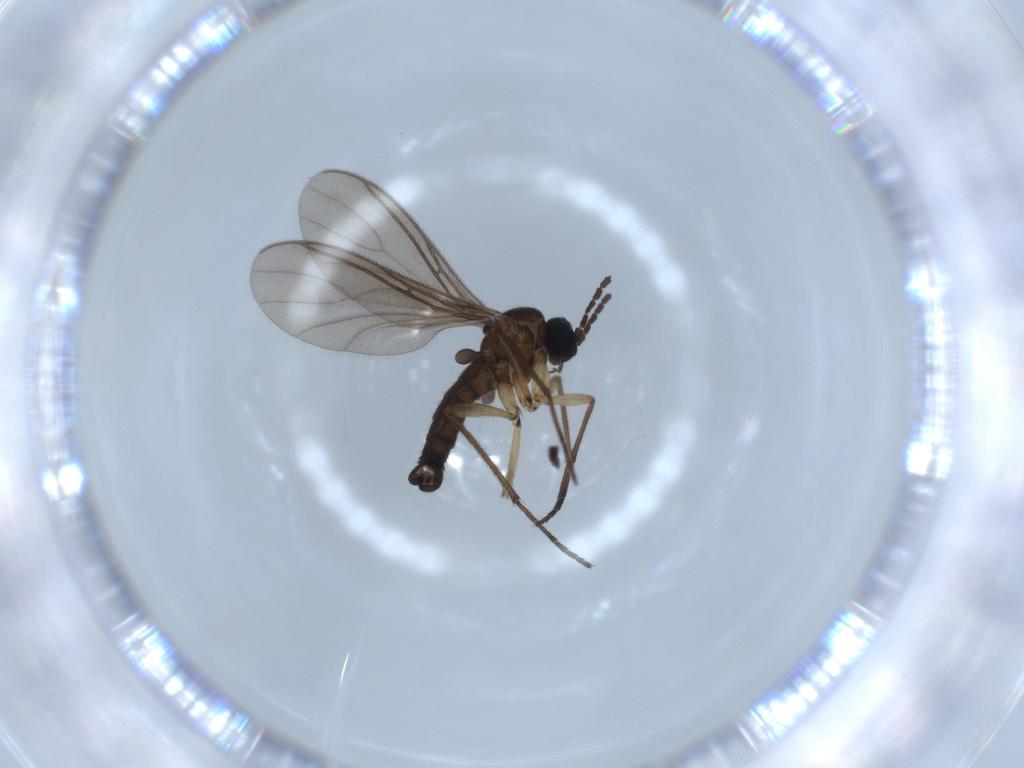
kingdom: Animalia
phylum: Arthropoda
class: Insecta
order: Diptera
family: Sciaridae
